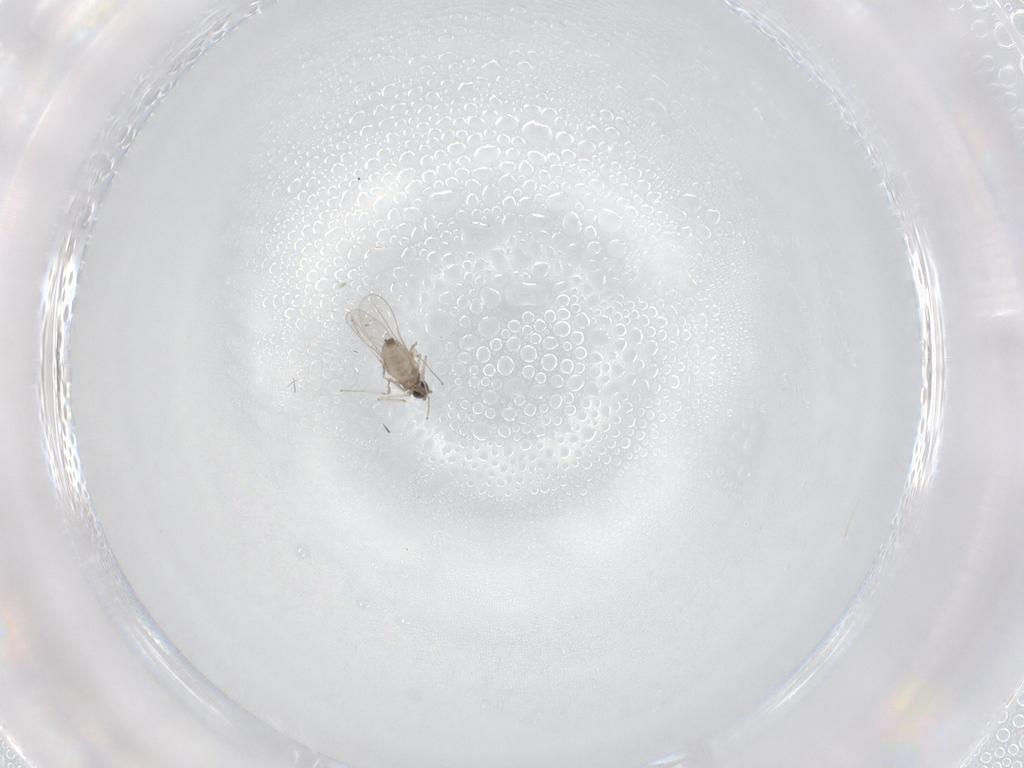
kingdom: Animalia
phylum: Arthropoda
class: Insecta
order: Diptera
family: Cecidomyiidae
